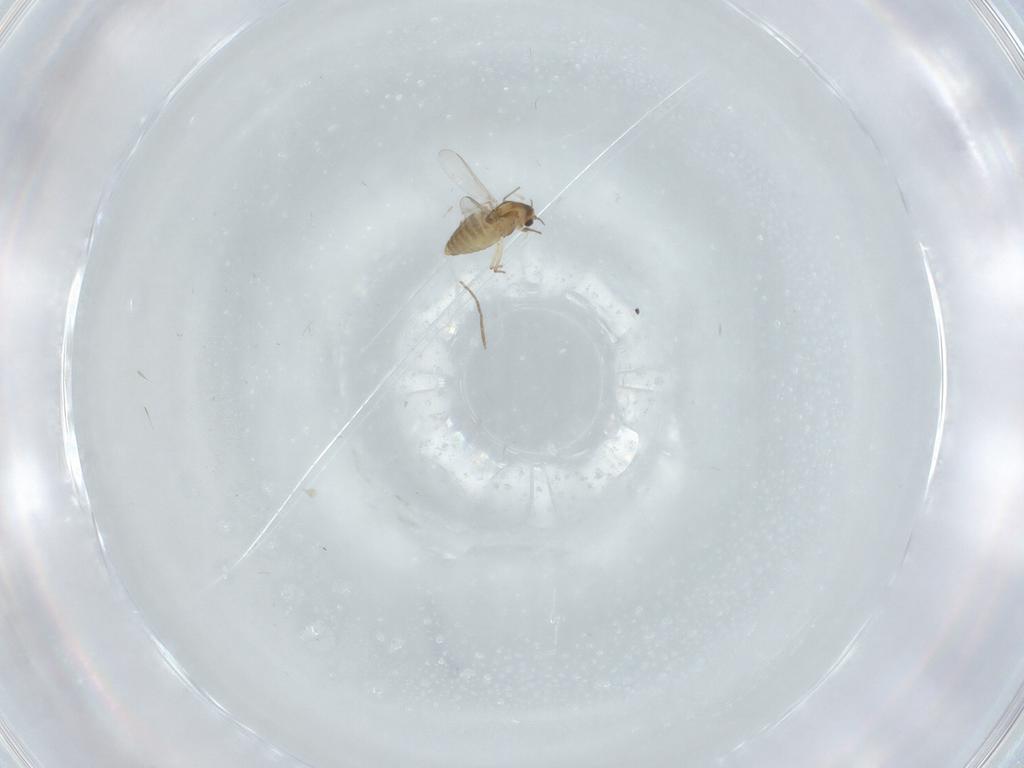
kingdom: Animalia
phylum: Arthropoda
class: Insecta
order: Diptera
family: Chironomidae
